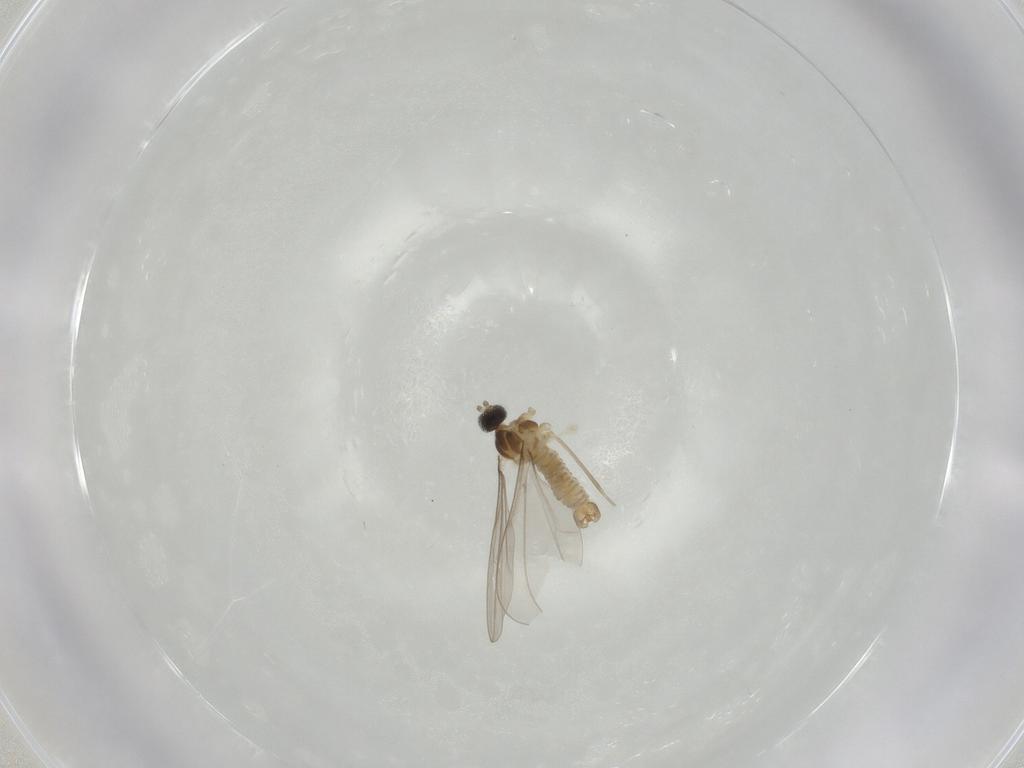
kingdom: Animalia
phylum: Arthropoda
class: Insecta
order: Diptera
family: Cecidomyiidae
